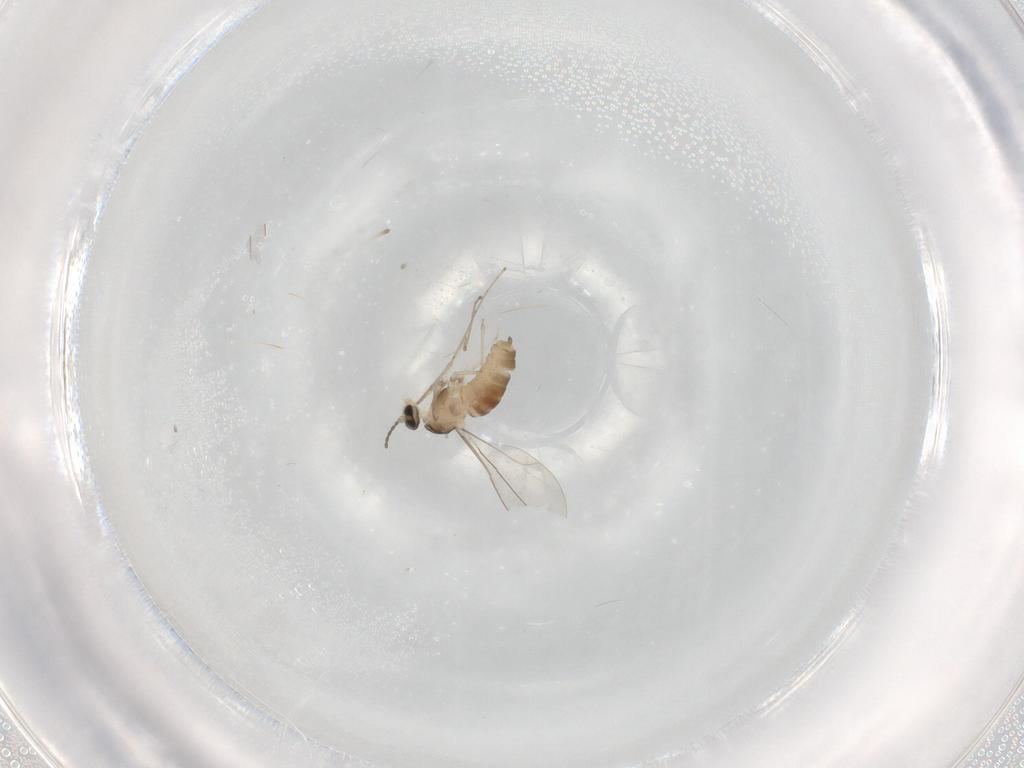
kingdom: Animalia
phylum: Arthropoda
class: Insecta
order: Diptera
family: Cecidomyiidae
